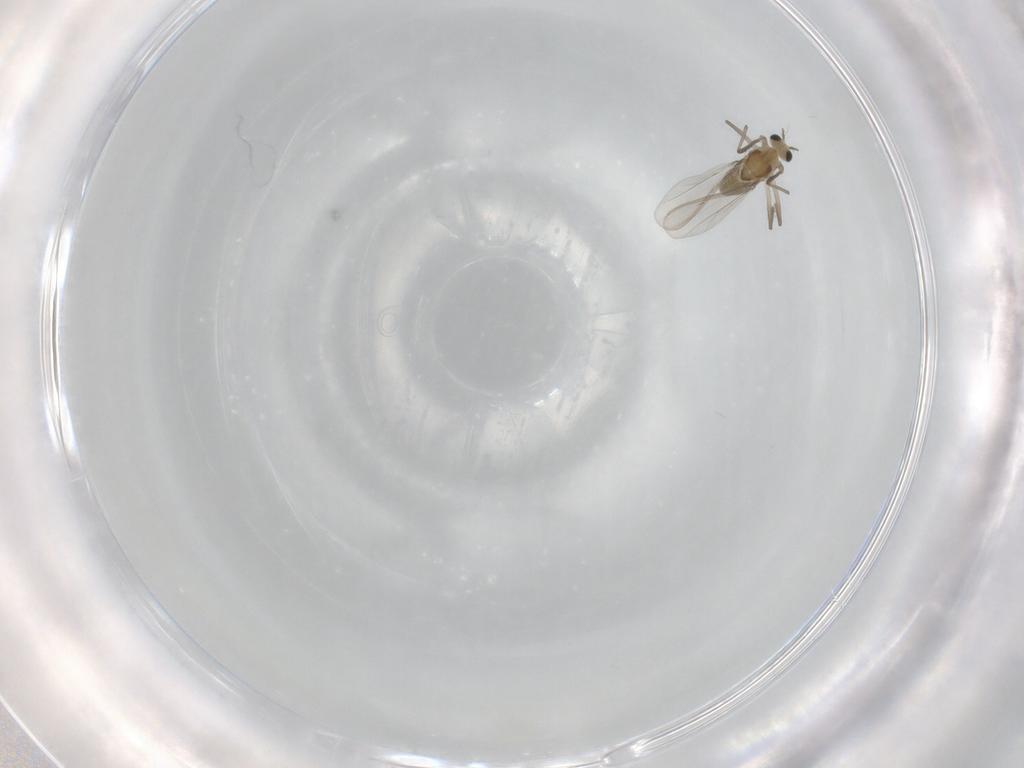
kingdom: Animalia
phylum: Arthropoda
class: Insecta
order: Diptera
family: Chironomidae
